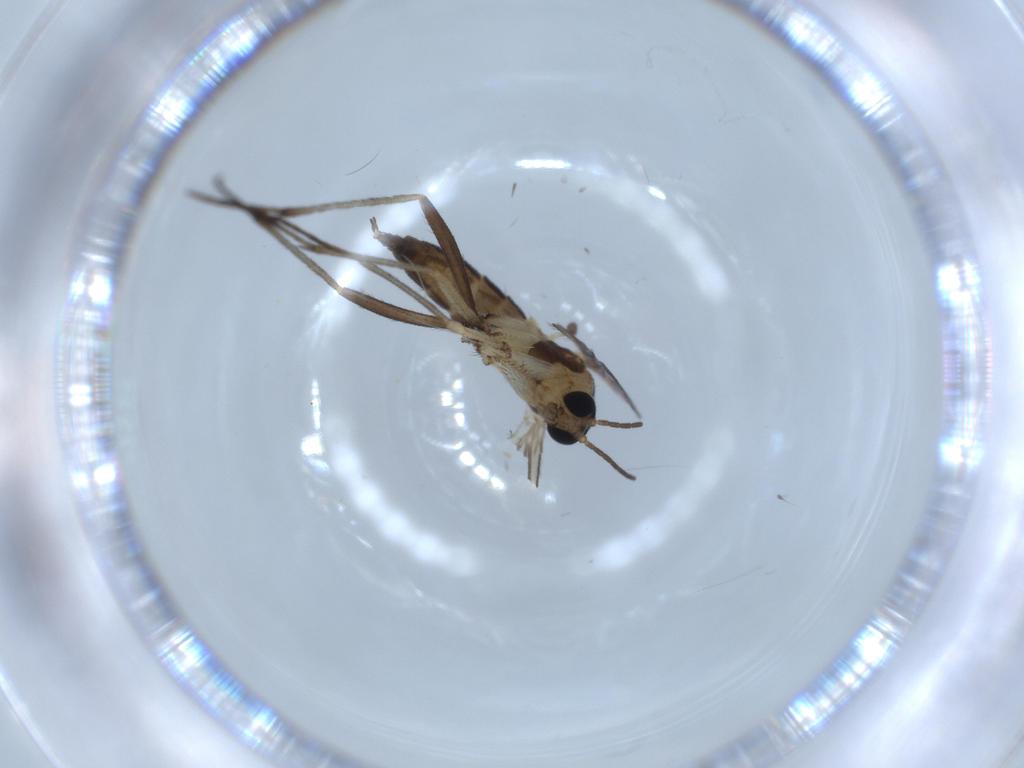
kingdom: Animalia
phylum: Arthropoda
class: Insecta
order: Diptera
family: Sciaridae
